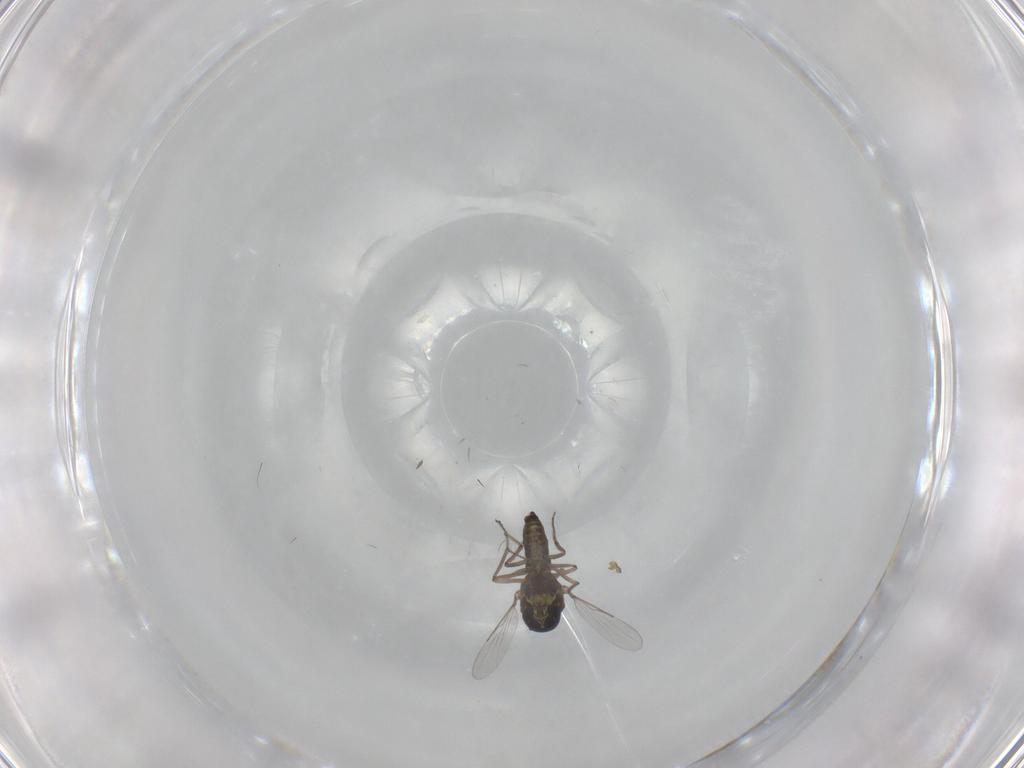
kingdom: Animalia
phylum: Arthropoda
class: Insecta
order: Diptera
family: Ceratopogonidae
